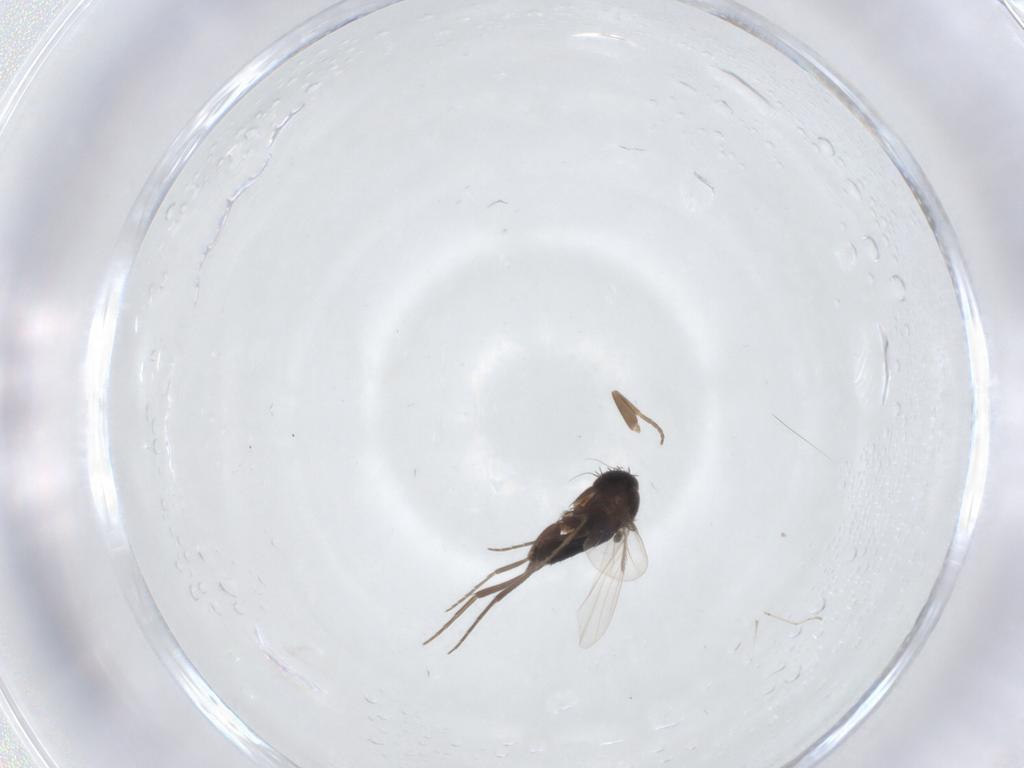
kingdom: Animalia
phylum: Arthropoda
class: Insecta
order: Diptera
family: Phoridae
